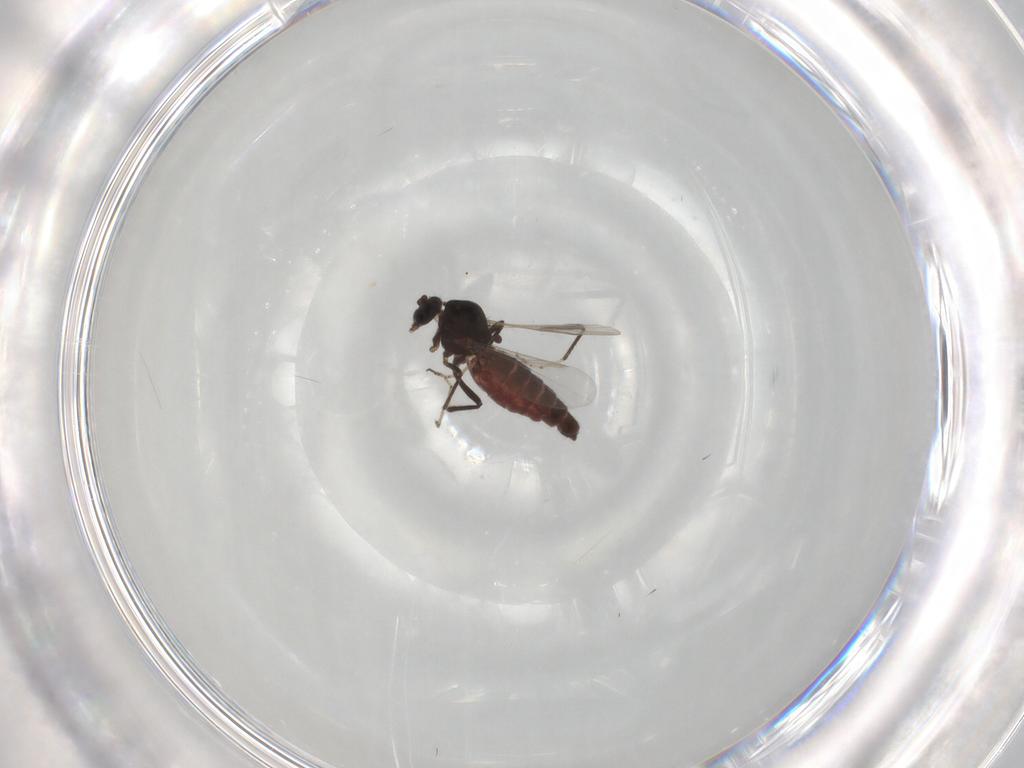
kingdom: Animalia
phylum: Arthropoda
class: Insecta
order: Diptera
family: Ceratopogonidae
